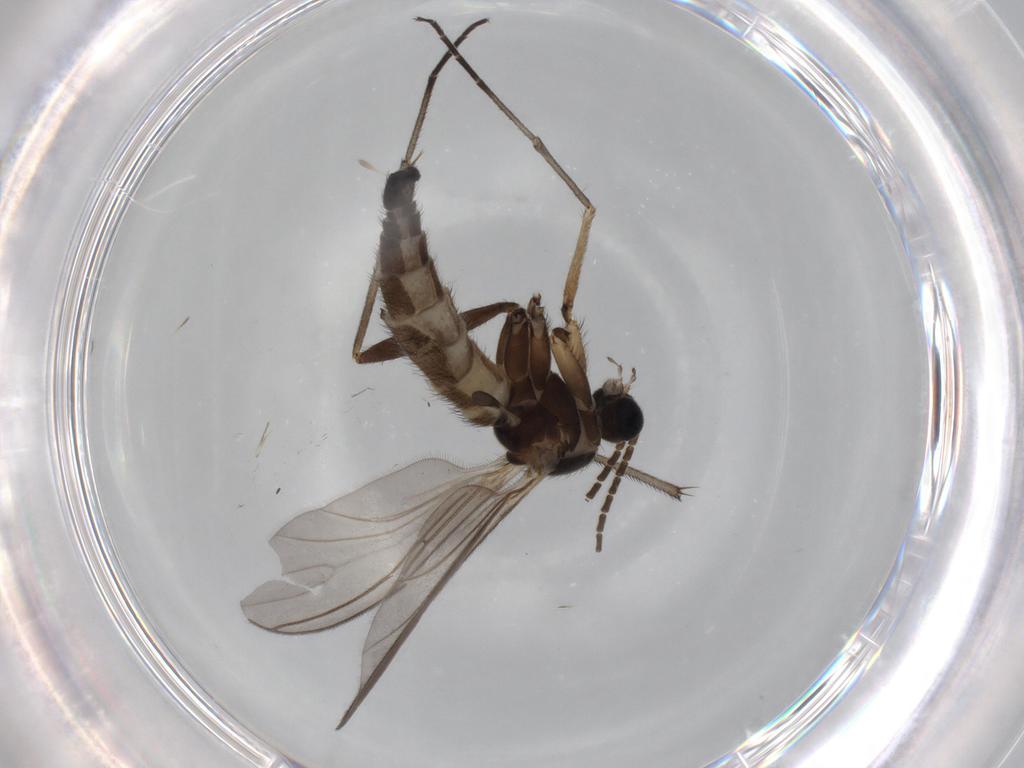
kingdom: Animalia
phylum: Arthropoda
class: Insecta
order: Diptera
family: Sciaridae
